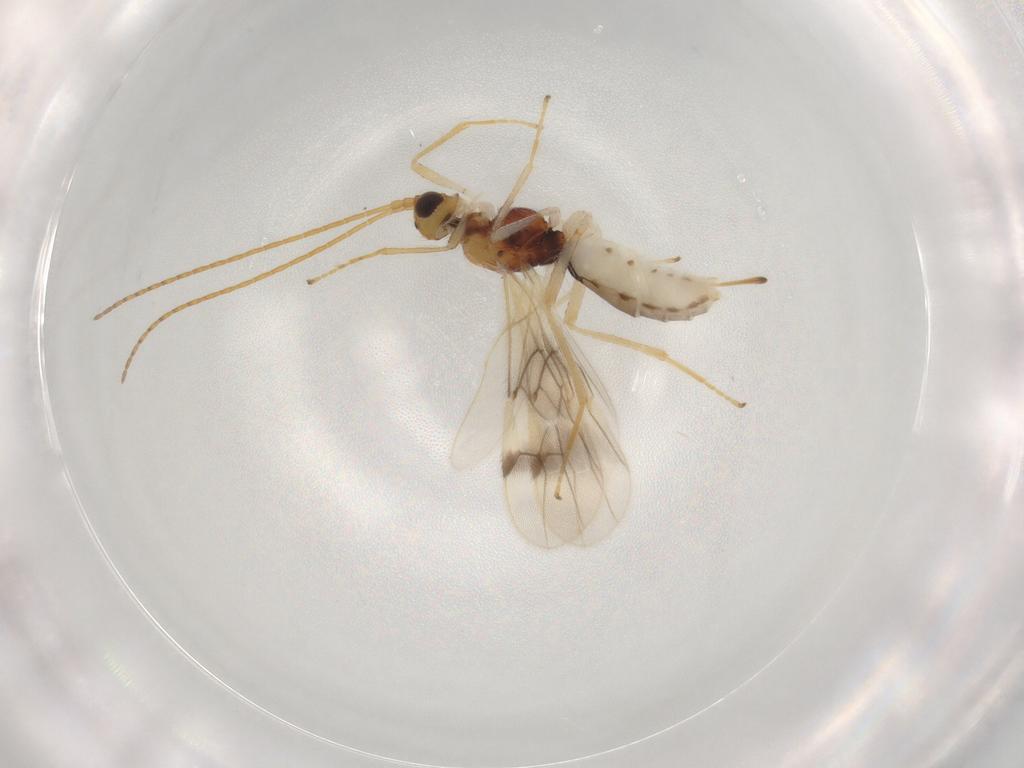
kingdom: Animalia
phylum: Arthropoda
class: Insecta
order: Hymenoptera
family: Braconidae
